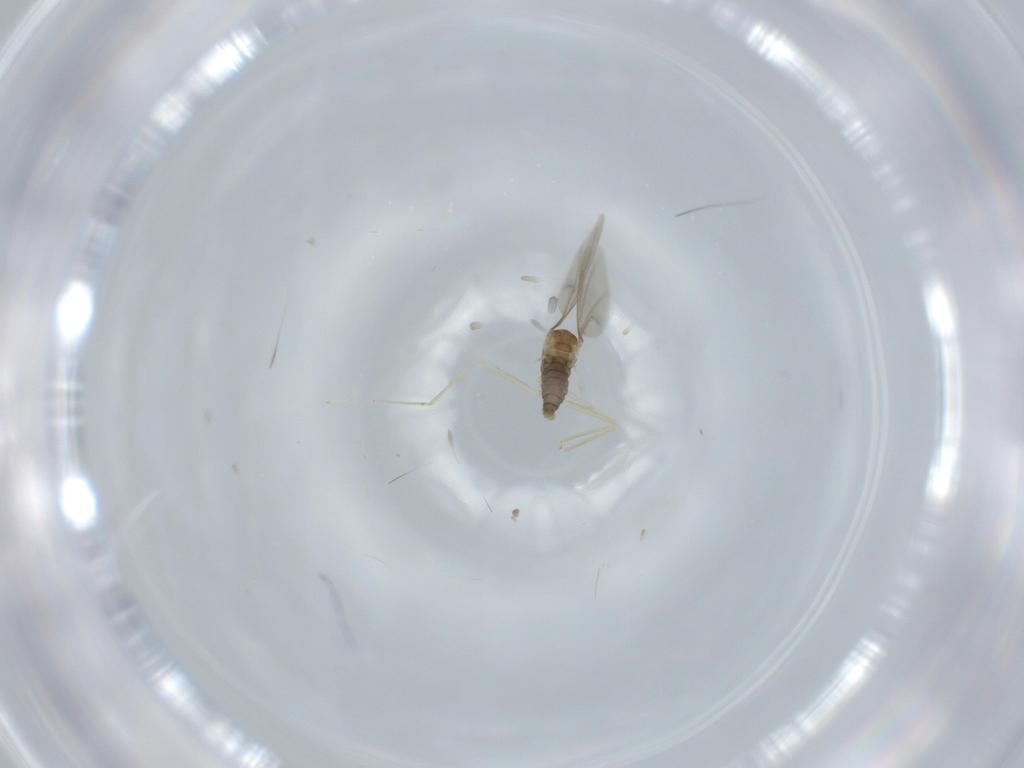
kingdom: Animalia
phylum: Arthropoda
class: Insecta
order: Diptera
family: Cecidomyiidae
